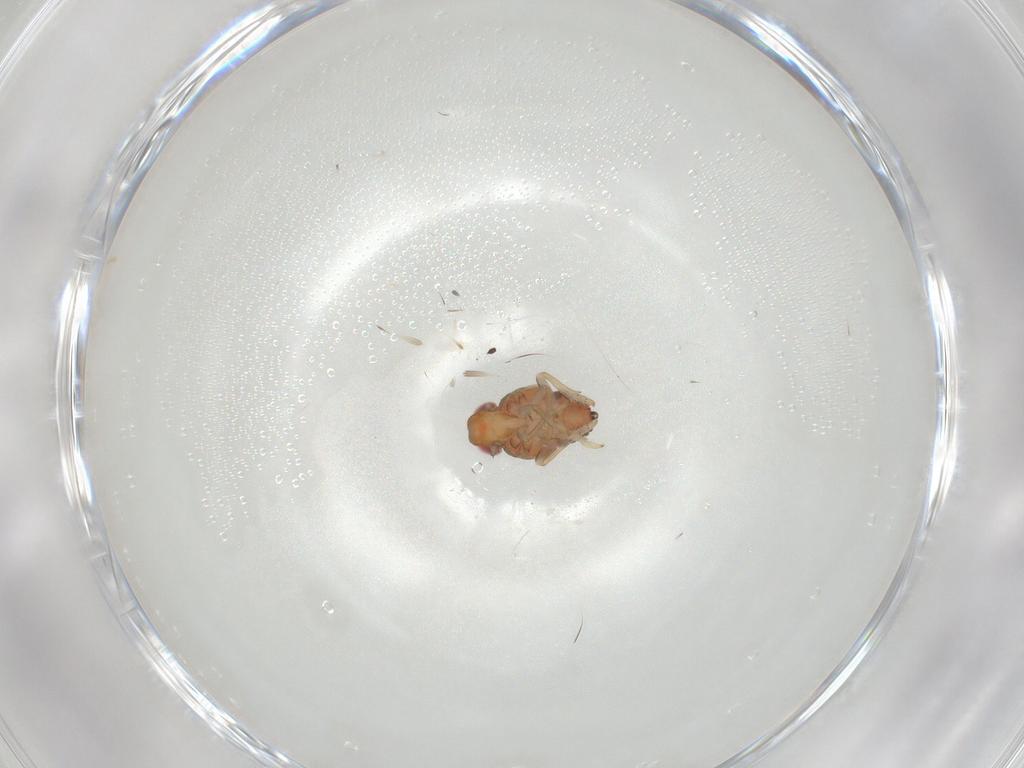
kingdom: Animalia
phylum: Arthropoda
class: Insecta
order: Hemiptera
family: Issidae
